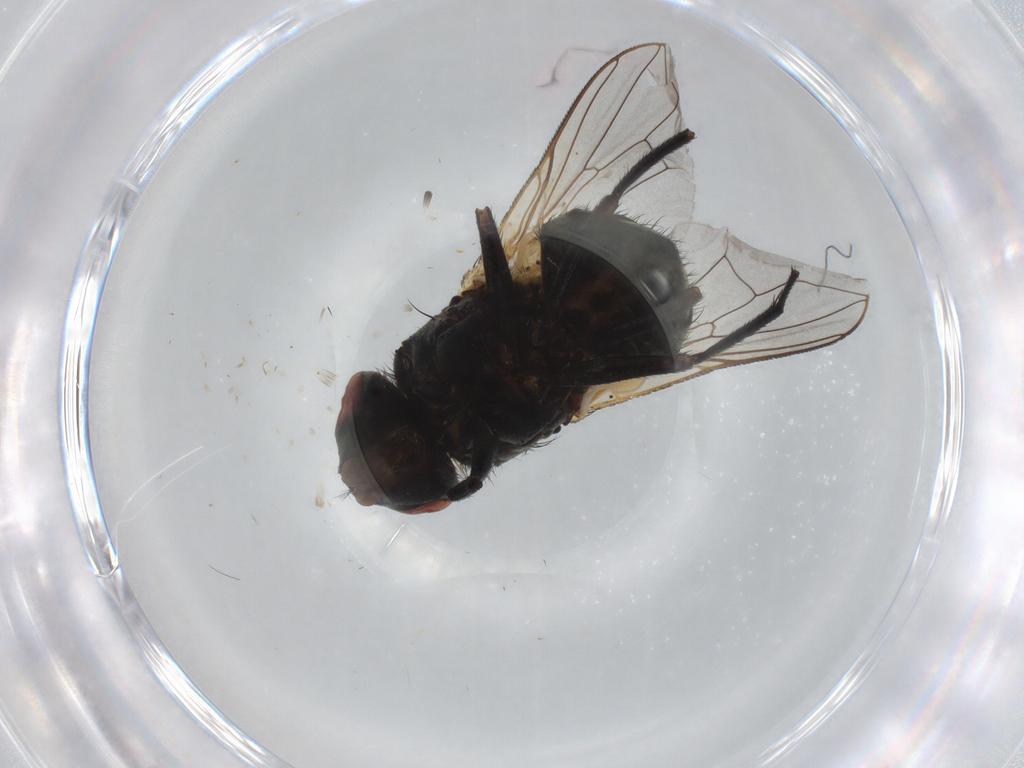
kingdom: Animalia
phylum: Arthropoda
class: Insecta
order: Diptera
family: Muscidae
